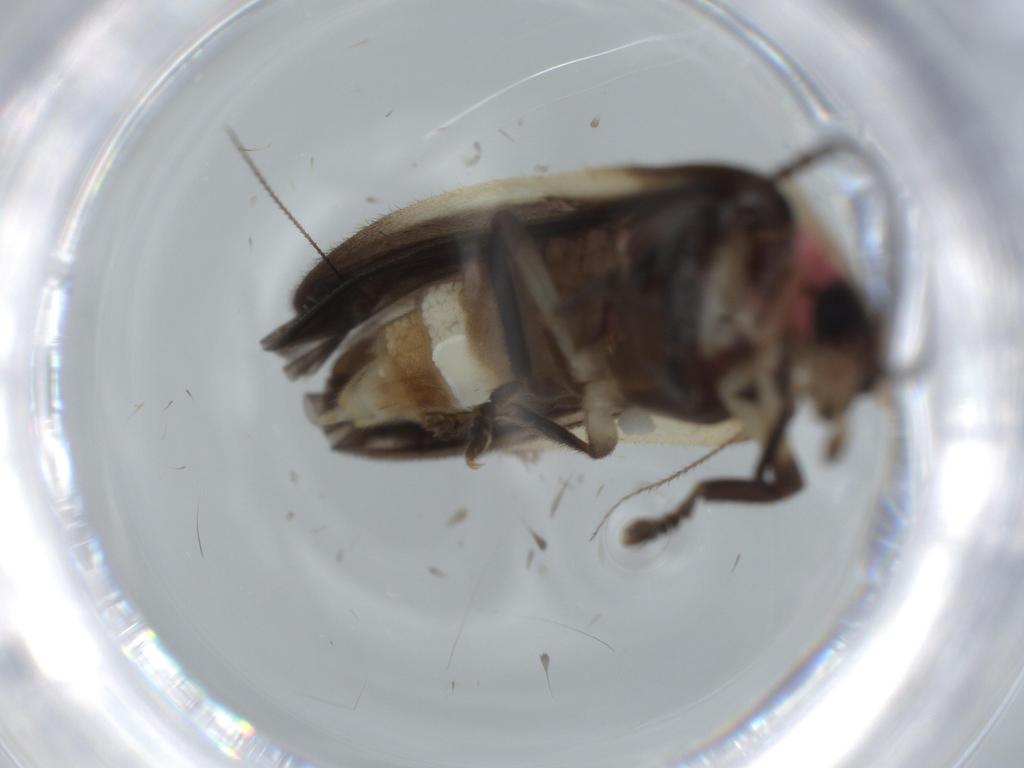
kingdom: Animalia
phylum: Arthropoda
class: Insecta
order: Coleoptera
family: Lampyridae
